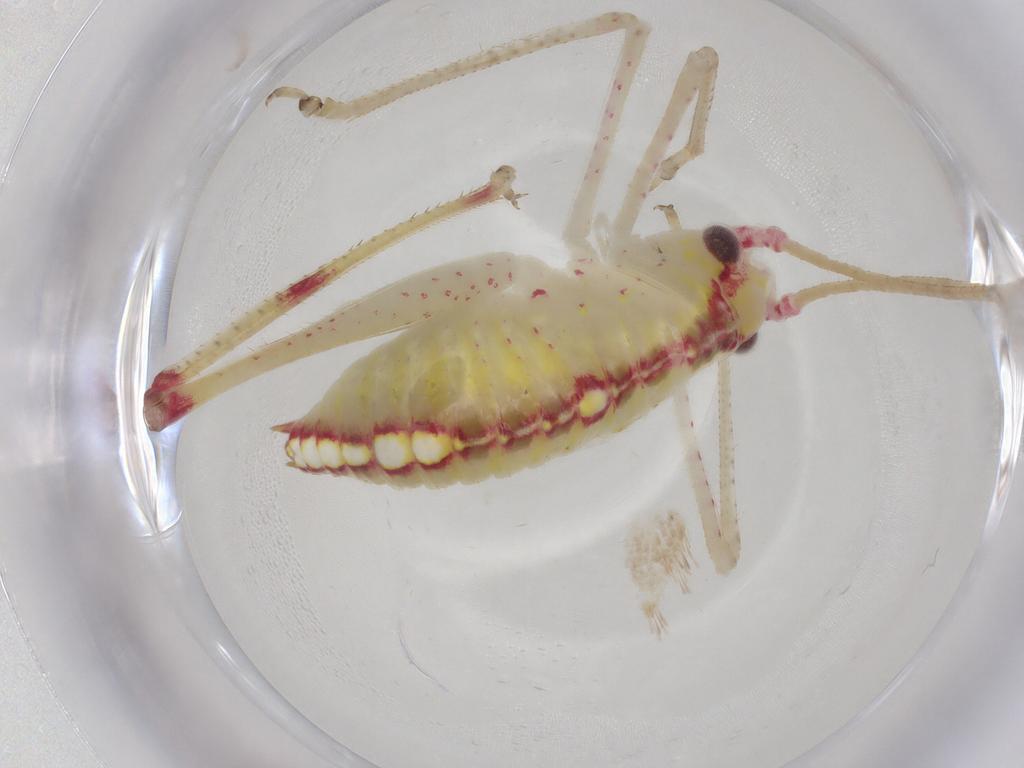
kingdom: Animalia
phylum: Arthropoda
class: Insecta
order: Orthoptera
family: Tettigoniidae
